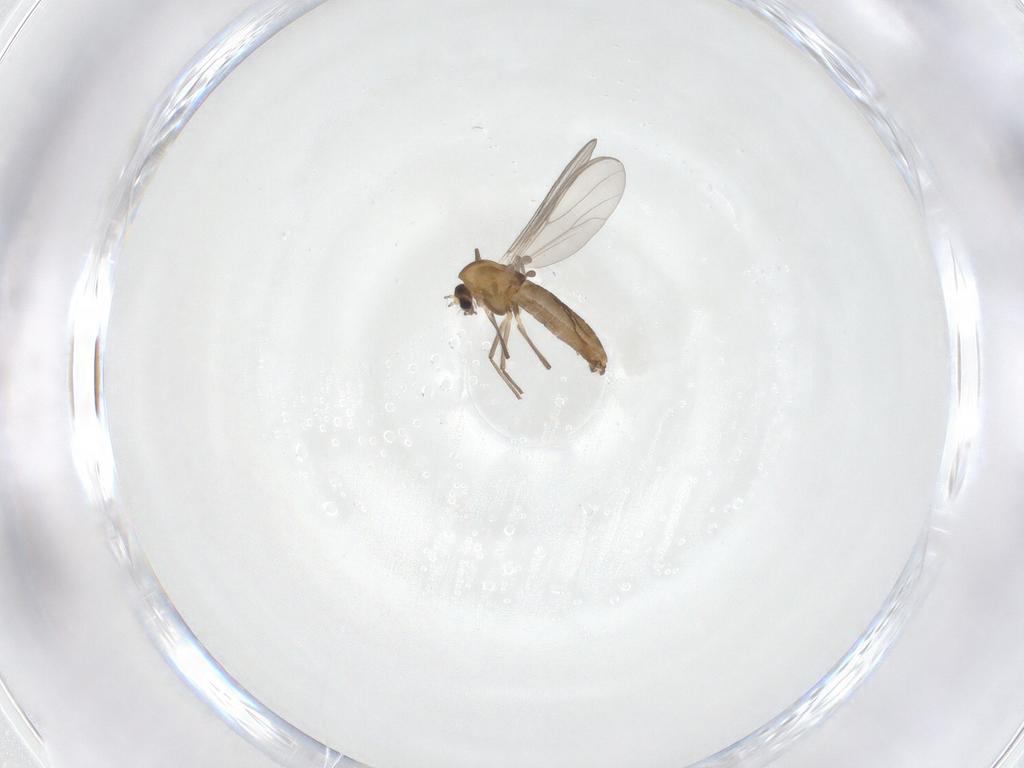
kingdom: Animalia
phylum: Arthropoda
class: Insecta
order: Diptera
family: Chironomidae
